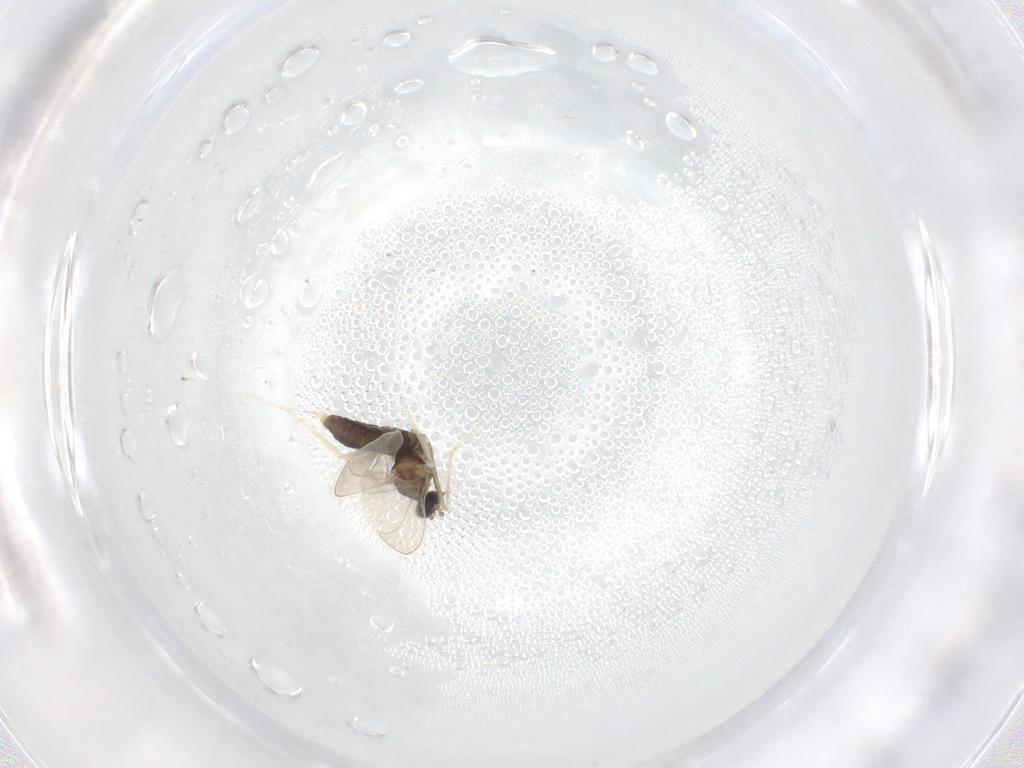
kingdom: Animalia
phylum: Arthropoda
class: Insecta
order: Diptera
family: Cecidomyiidae
